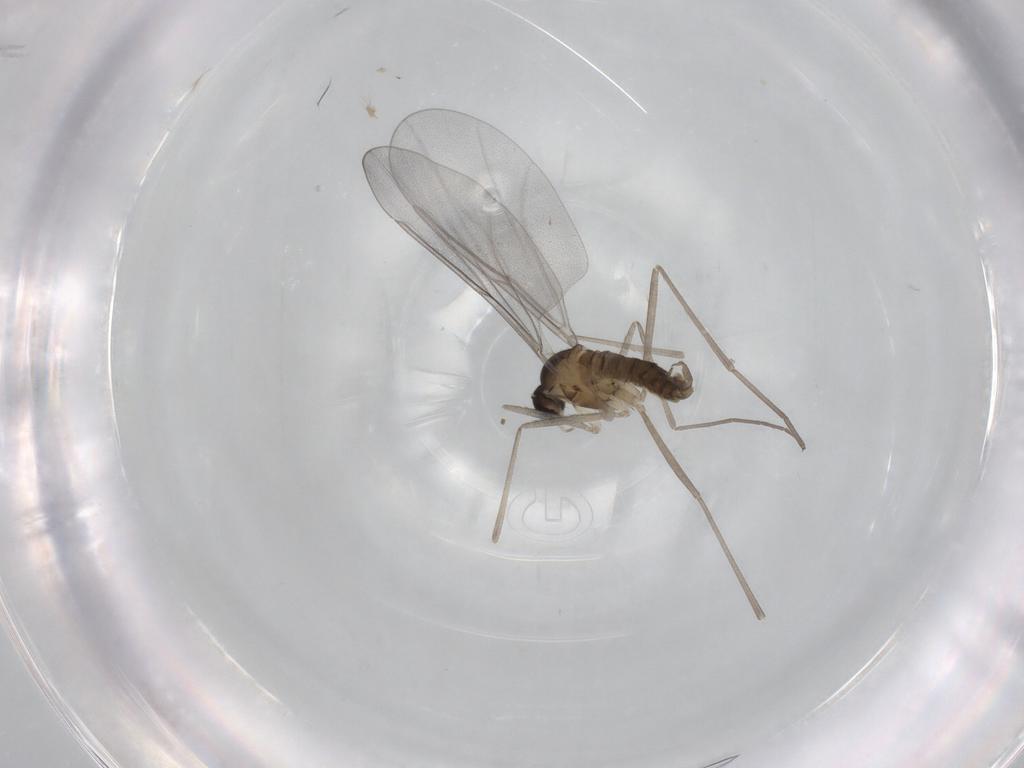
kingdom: Animalia
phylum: Arthropoda
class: Insecta
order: Diptera
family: Cecidomyiidae
